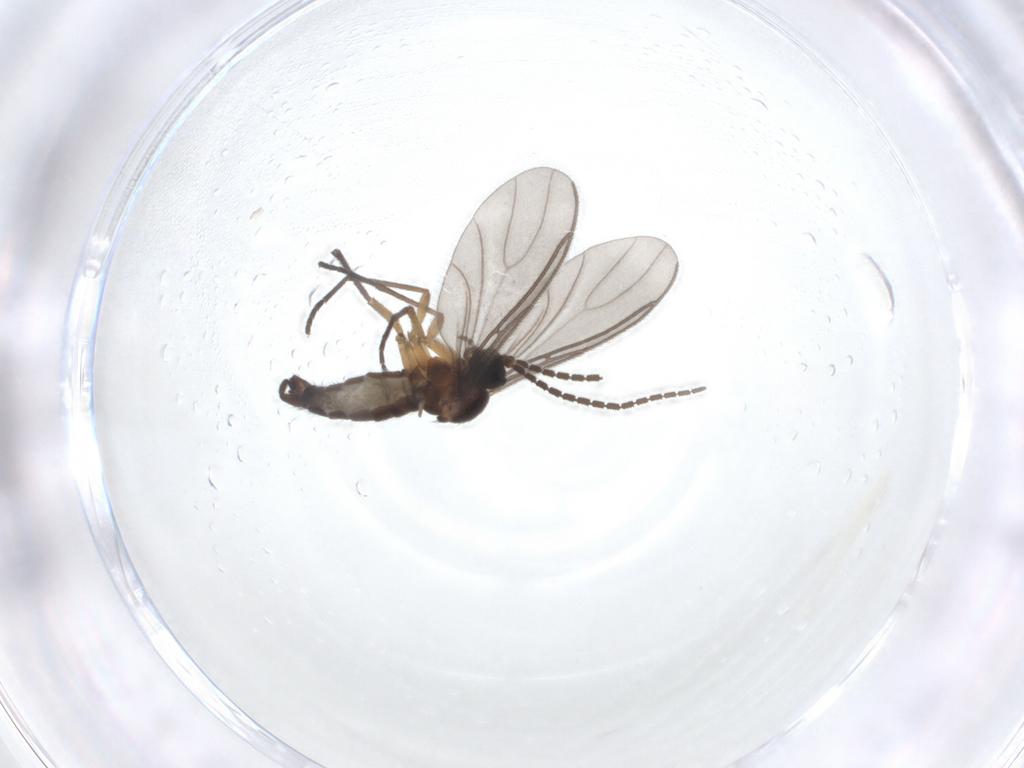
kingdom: Animalia
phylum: Arthropoda
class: Insecta
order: Diptera
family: Sciaridae
